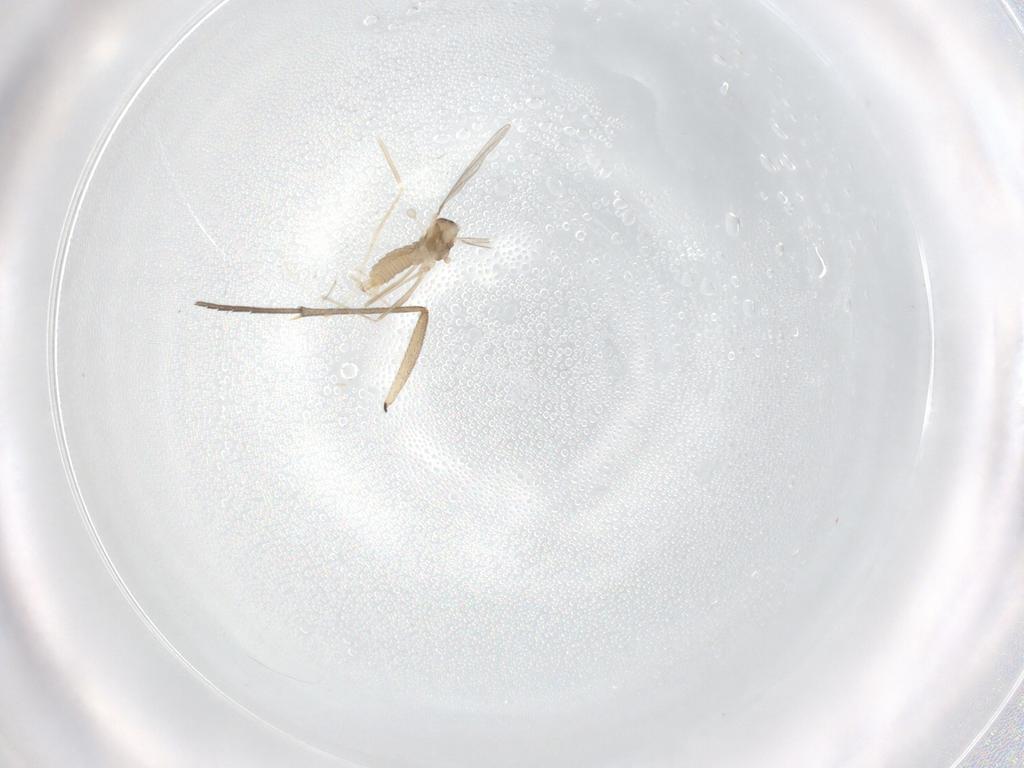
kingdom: Animalia
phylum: Arthropoda
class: Insecta
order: Diptera
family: Cecidomyiidae
